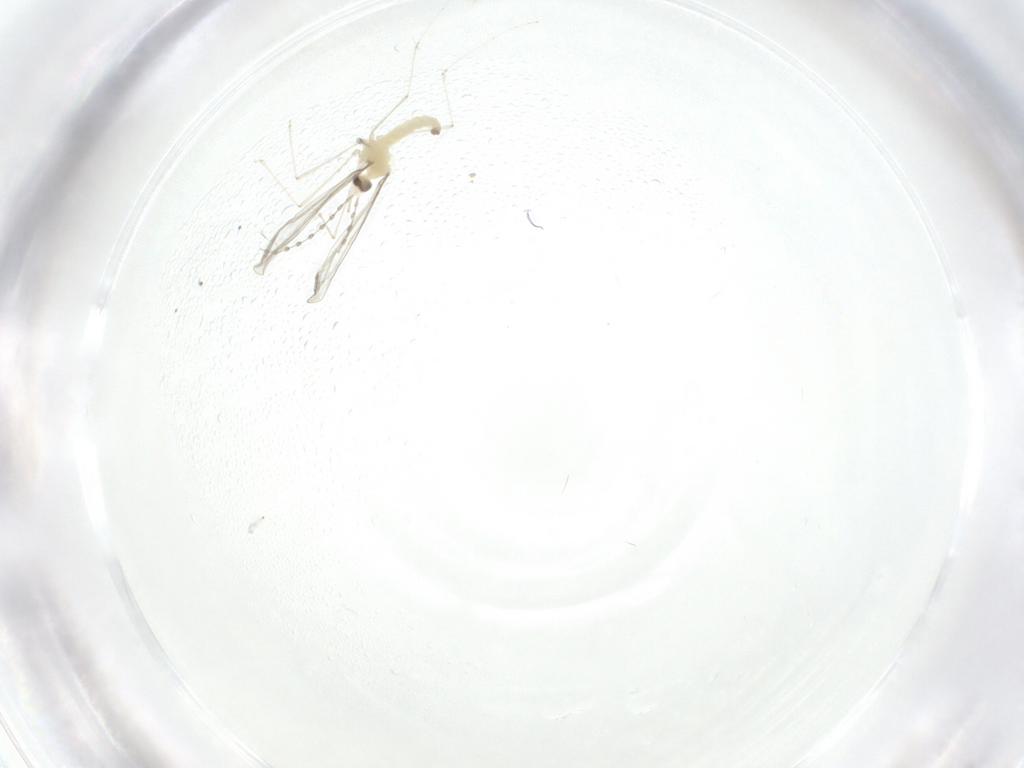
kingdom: Animalia
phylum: Arthropoda
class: Insecta
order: Diptera
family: Cecidomyiidae
